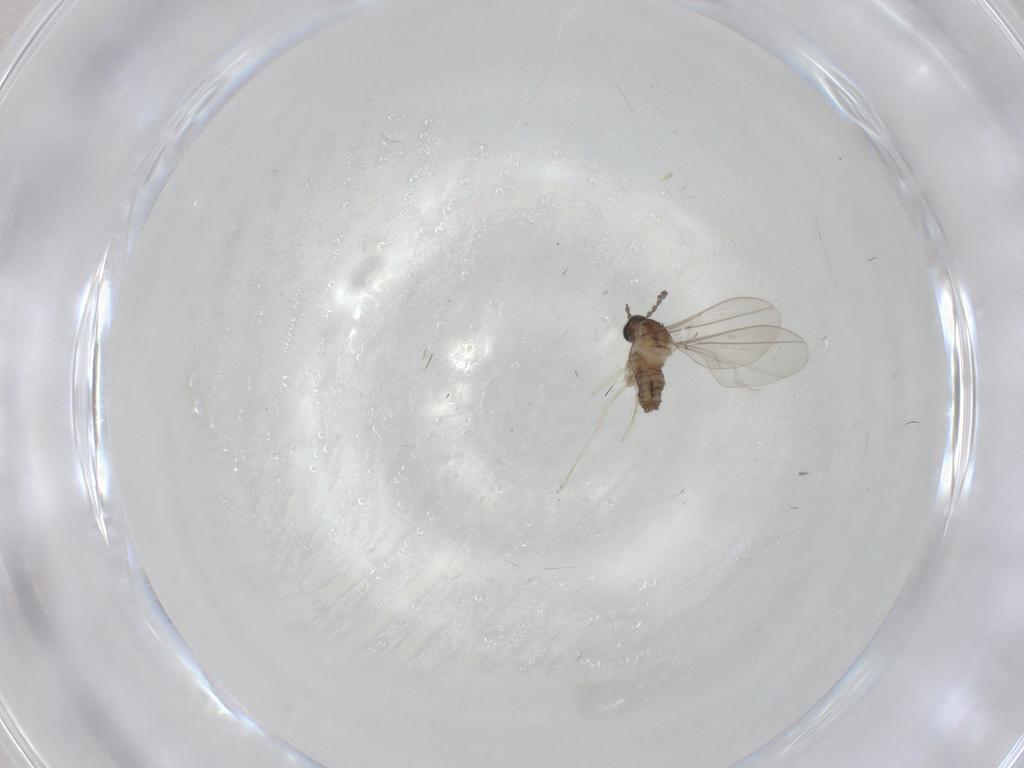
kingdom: Animalia
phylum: Arthropoda
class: Insecta
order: Diptera
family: Cecidomyiidae
